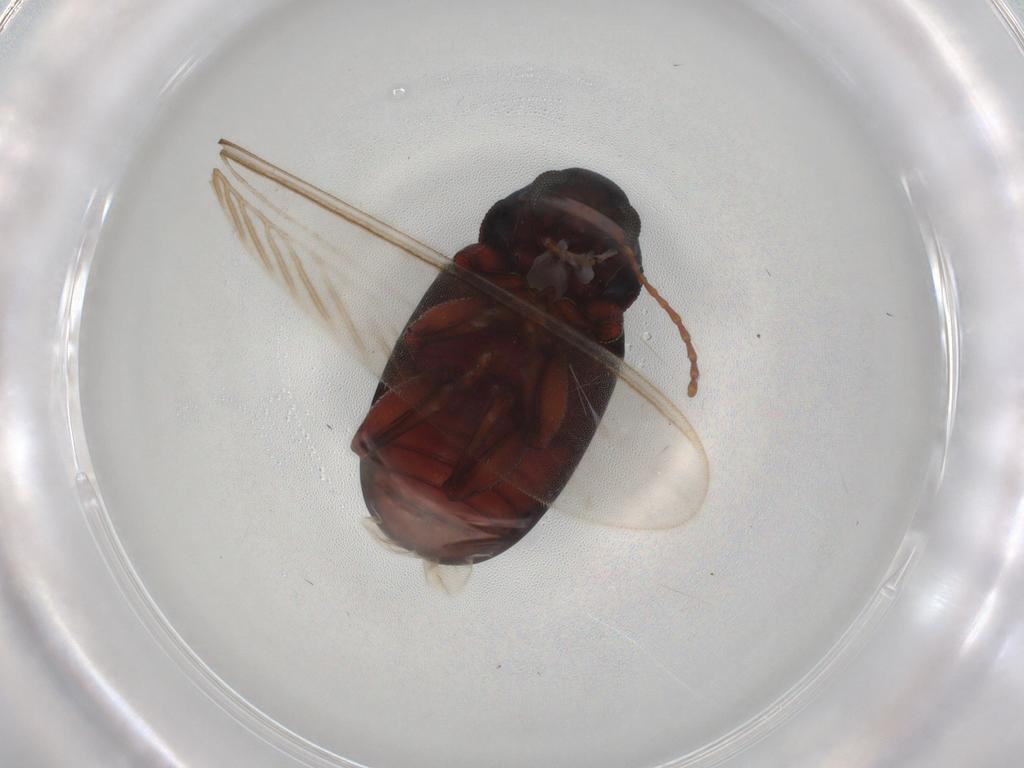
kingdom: Animalia
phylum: Arthropoda
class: Insecta
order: Coleoptera
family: Chrysomelidae
